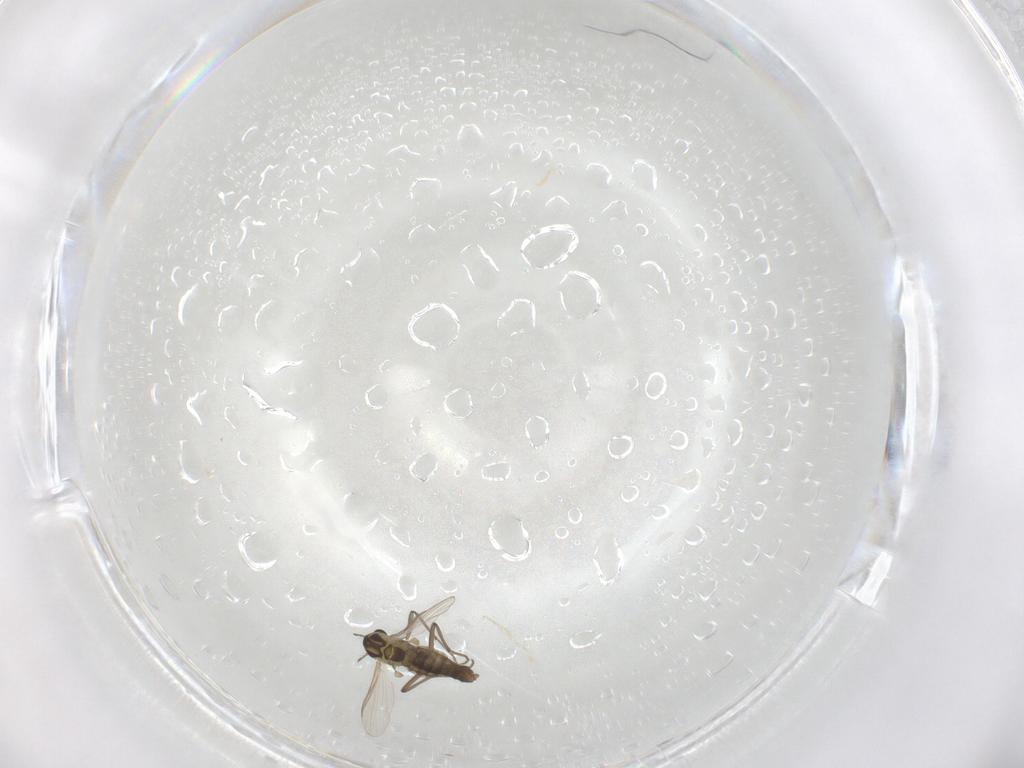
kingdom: Animalia
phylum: Arthropoda
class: Insecta
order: Diptera
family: Chironomidae
